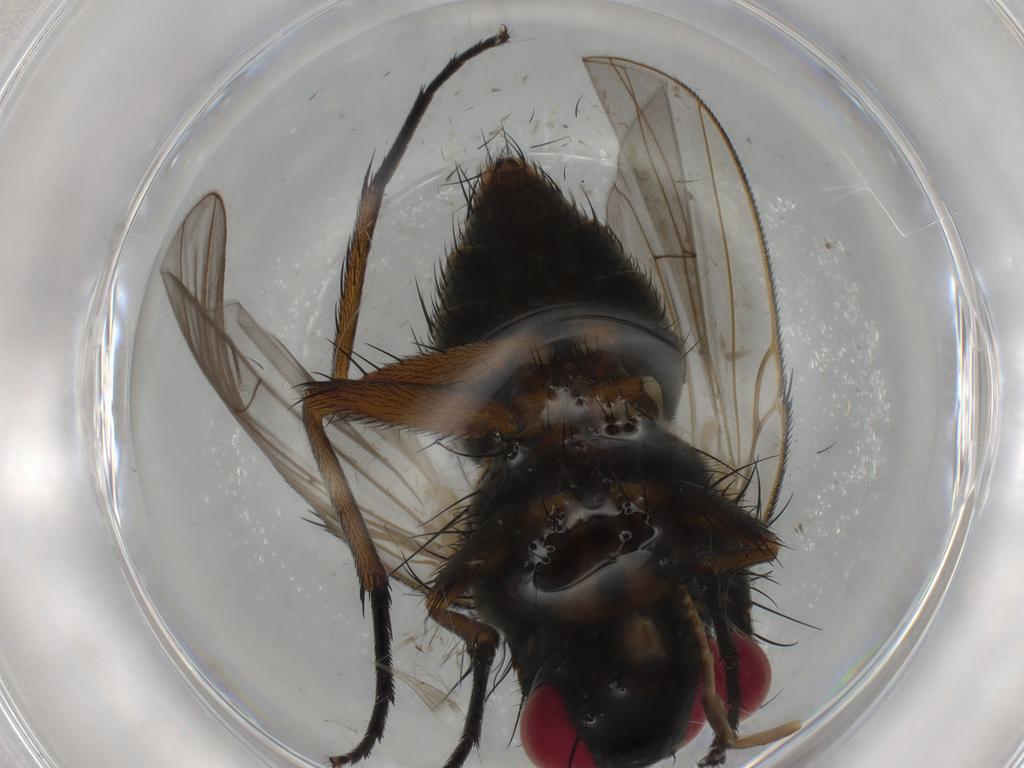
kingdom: Animalia
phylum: Arthropoda
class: Insecta
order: Diptera
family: Muscidae
